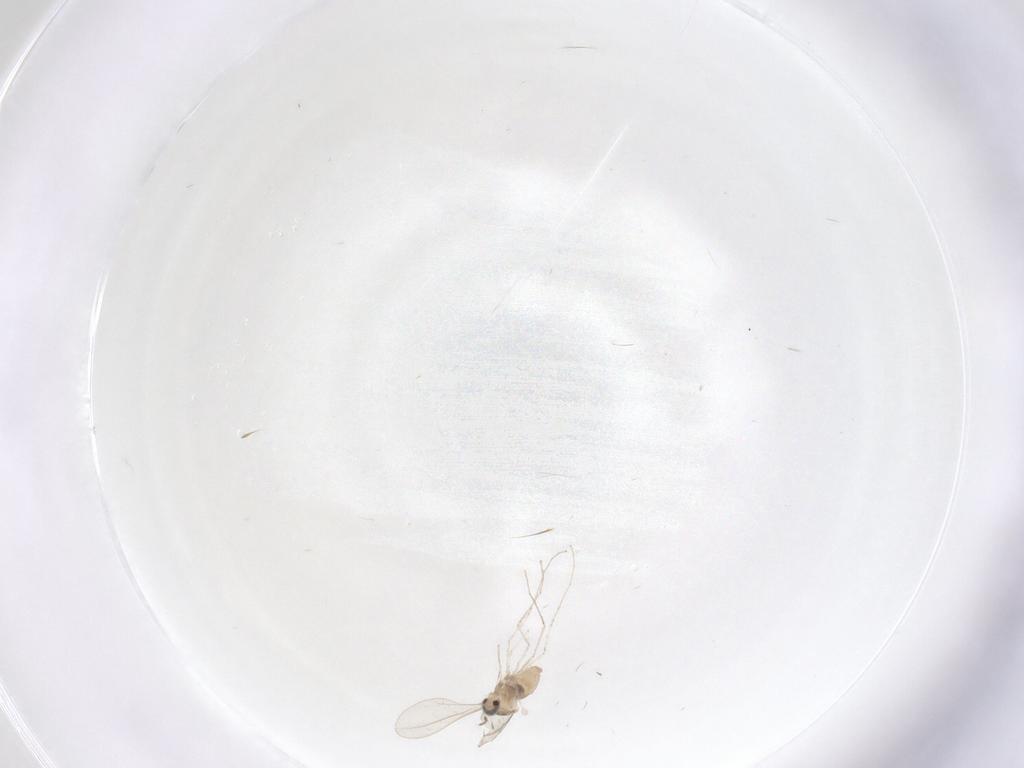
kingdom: Animalia
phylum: Arthropoda
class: Insecta
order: Diptera
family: Cecidomyiidae
